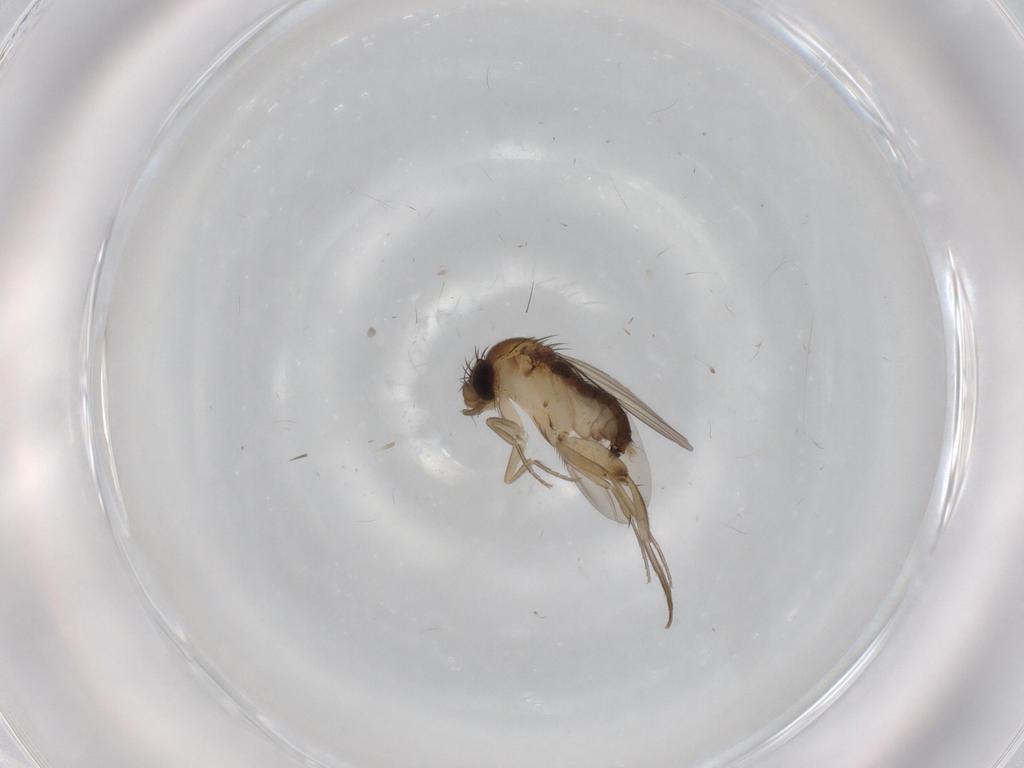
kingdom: Animalia
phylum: Arthropoda
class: Insecta
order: Diptera
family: Phoridae
